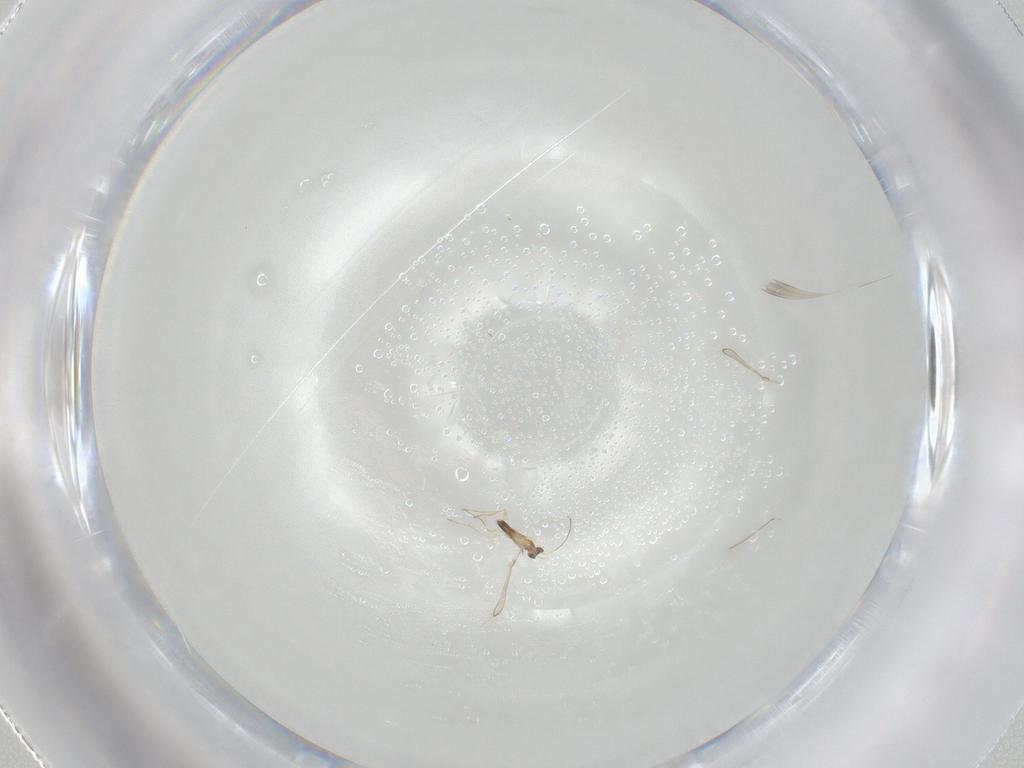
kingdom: Animalia
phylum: Arthropoda
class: Insecta
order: Hymenoptera
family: Mymaridae
